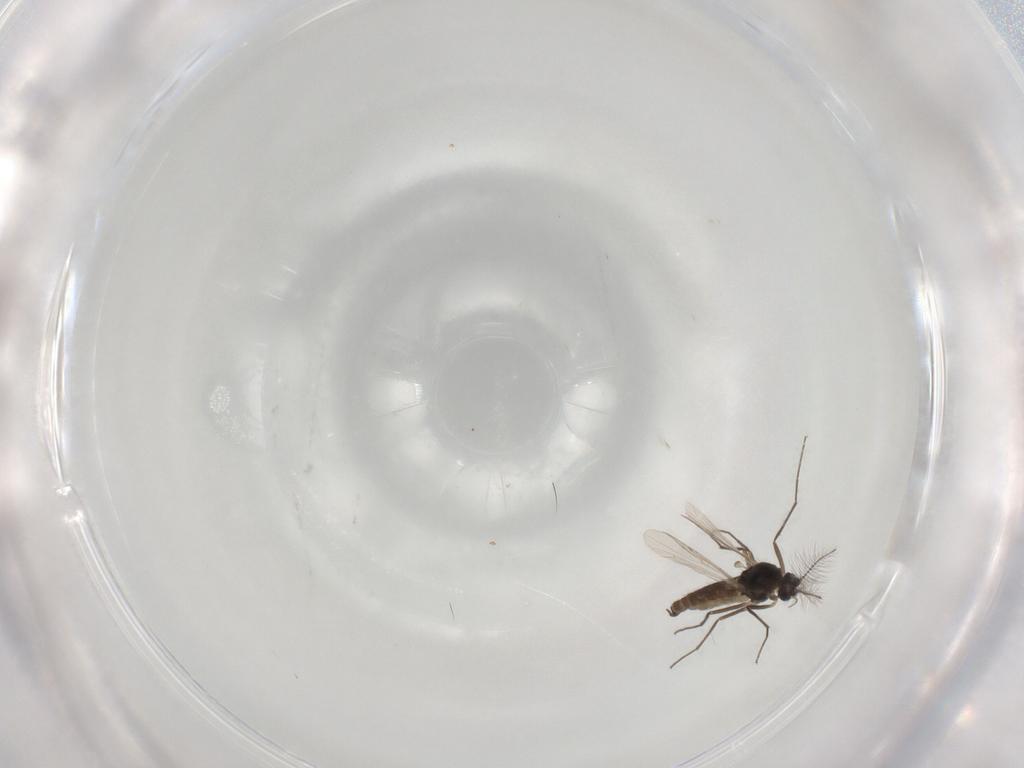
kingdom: Animalia
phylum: Arthropoda
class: Insecta
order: Diptera
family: Chironomidae
